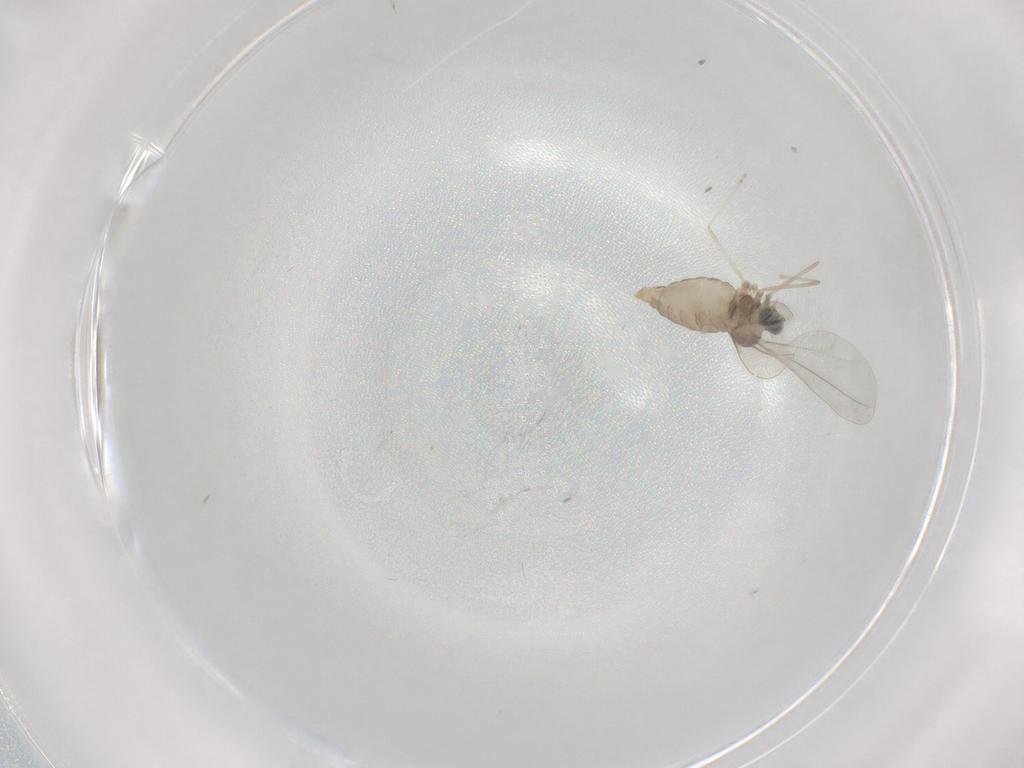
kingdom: Animalia
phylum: Arthropoda
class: Insecta
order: Diptera
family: Cecidomyiidae
